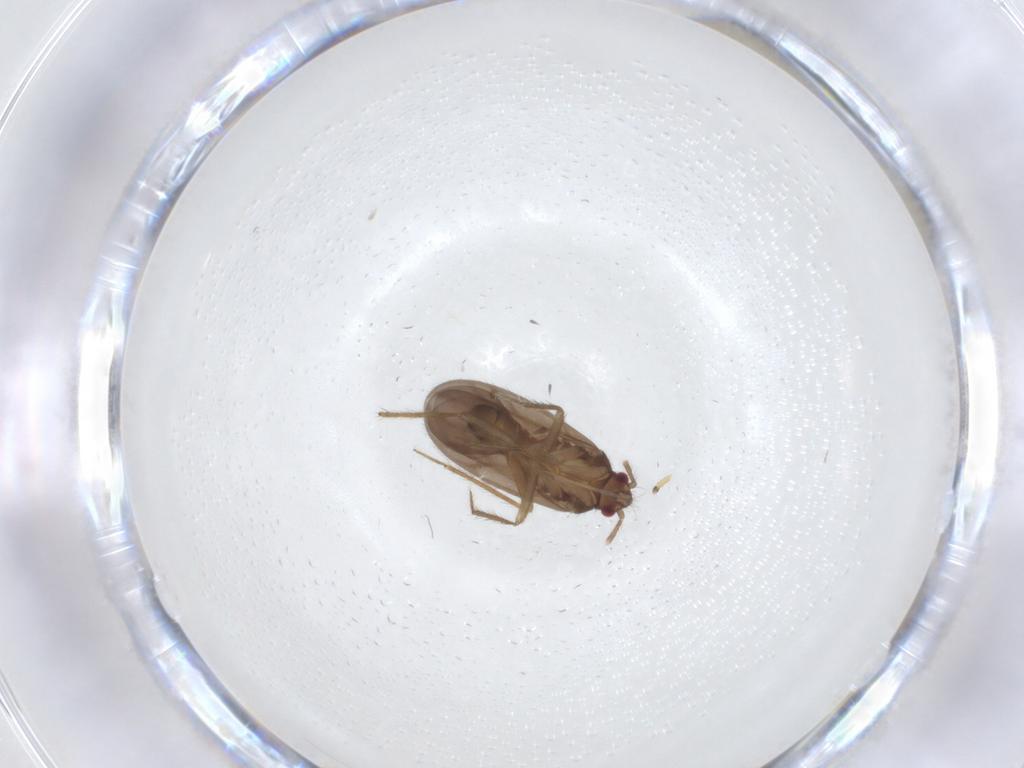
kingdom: Animalia
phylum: Arthropoda
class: Insecta
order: Hemiptera
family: Ceratocombidae
